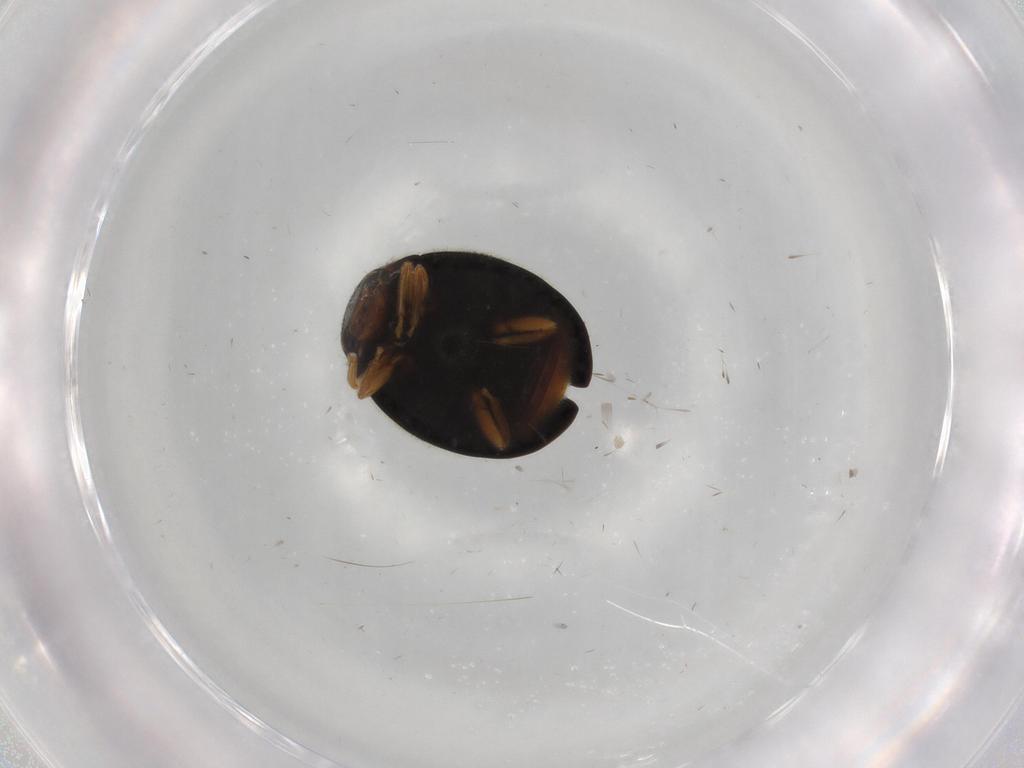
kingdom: Animalia
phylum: Arthropoda
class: Insecta
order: Coleoptera
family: Coccinellidae
